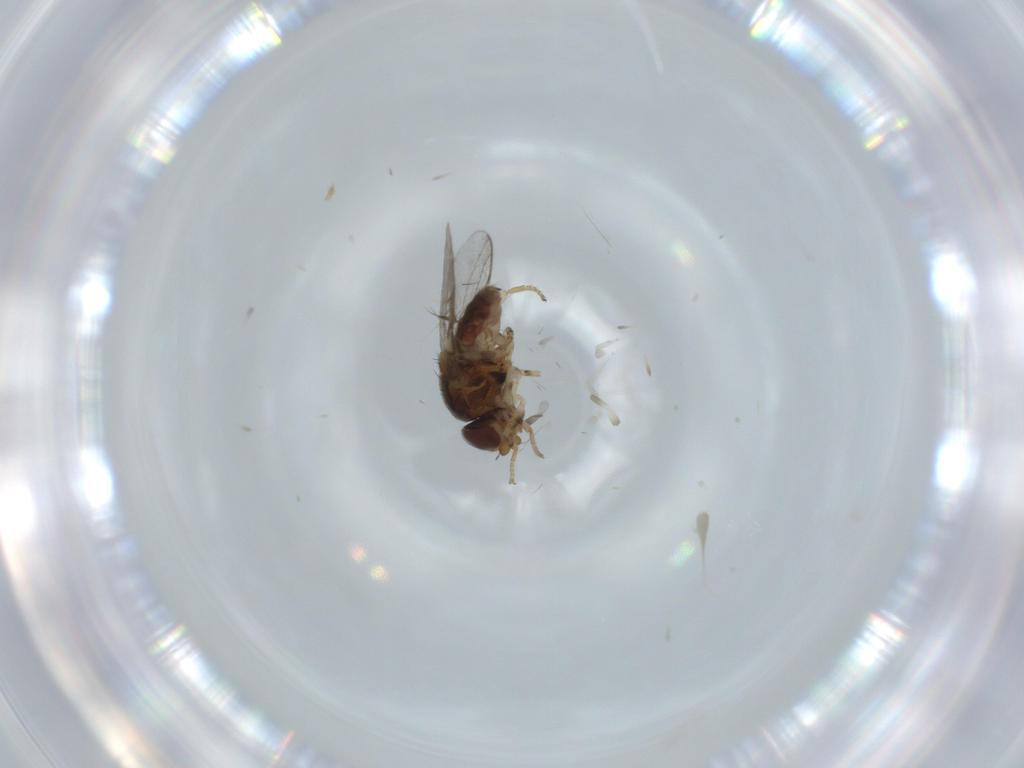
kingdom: Animalia
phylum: Arthropoda
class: Insecta
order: Diptera
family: Chloropidae
